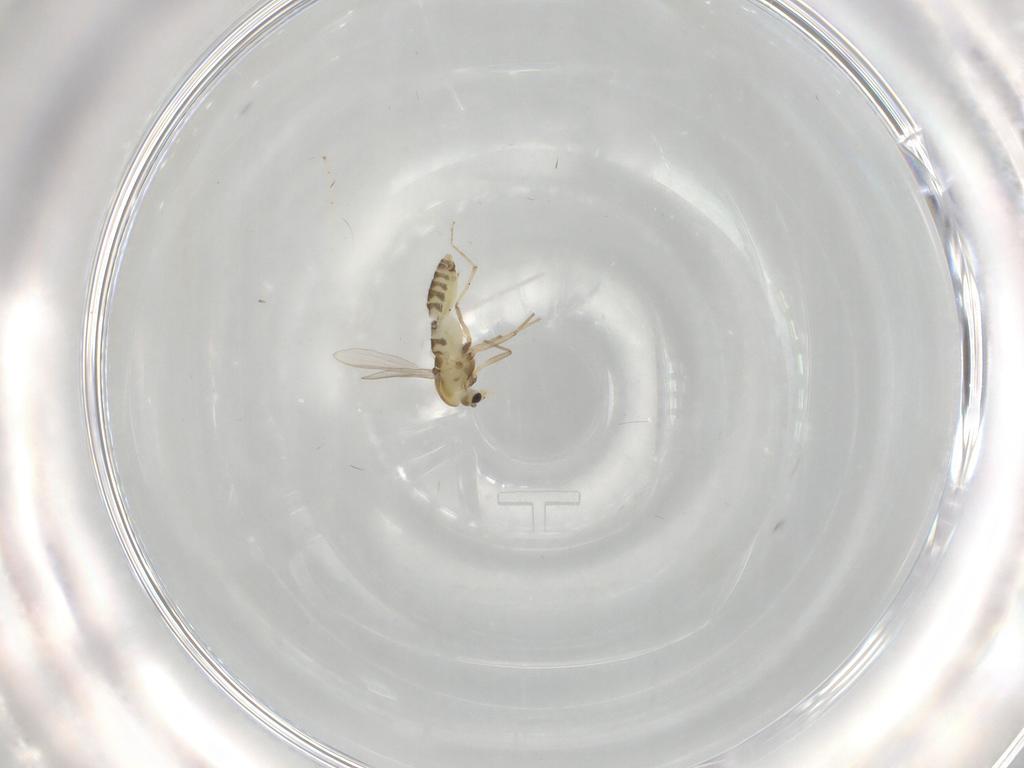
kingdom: Animalia
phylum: Arthropoda
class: Insecta
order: Diptera
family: Chironomidae
